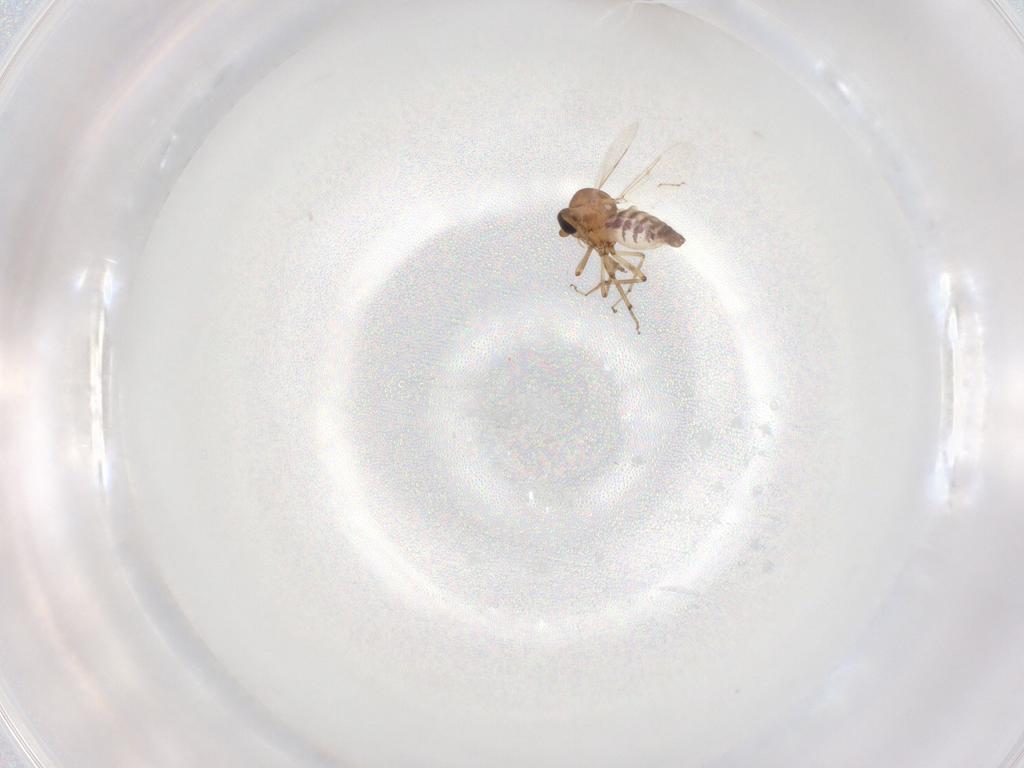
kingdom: Animalia
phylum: Arthropoda
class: Insecta
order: Diptera
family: Ceratopogonidae
